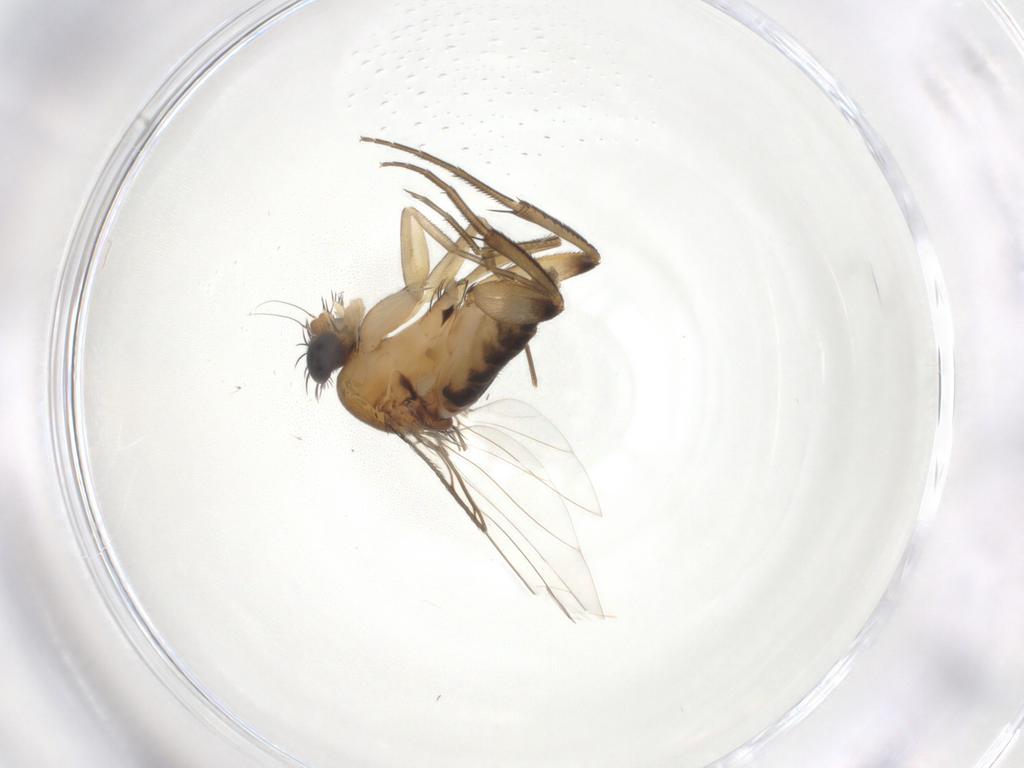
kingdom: Animalia
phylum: Arthropoda
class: Insecta
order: Diptera
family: Phoridae
